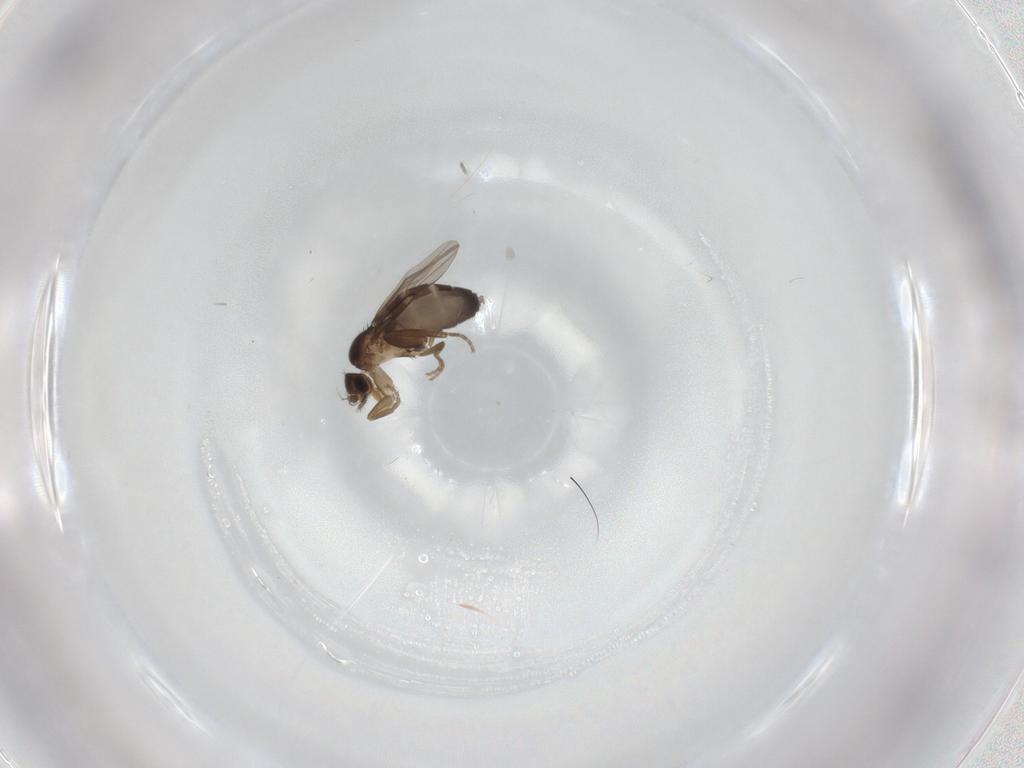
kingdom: Animalia
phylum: Arthropoda
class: Insecta
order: Diptera
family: Phoridae
